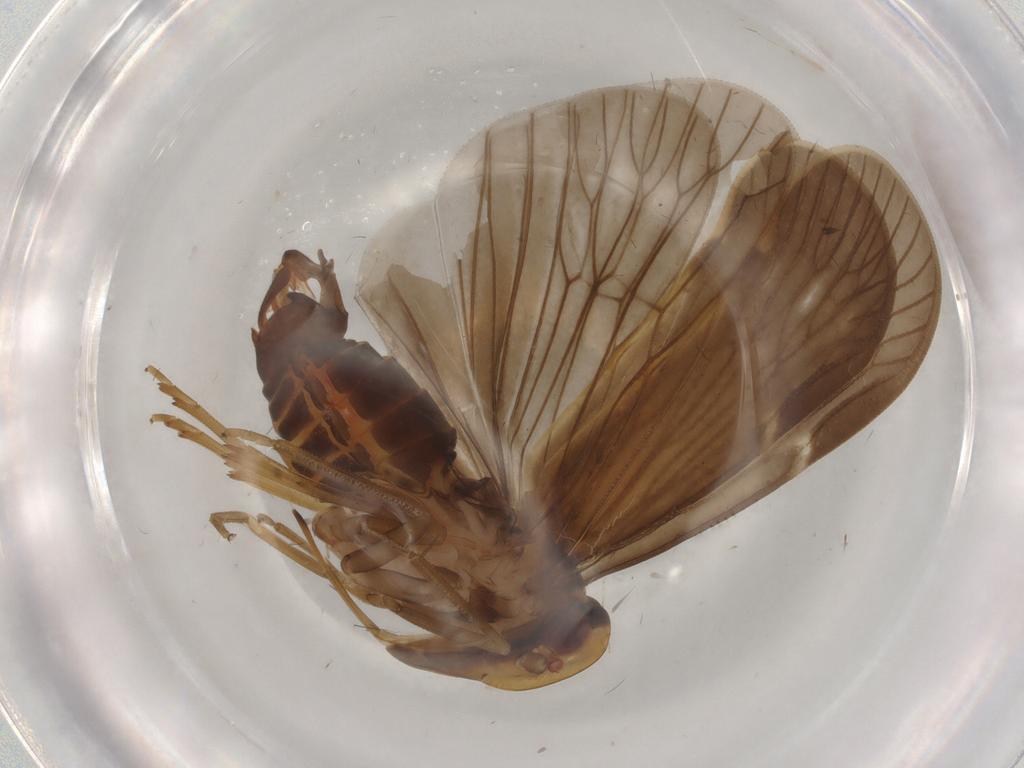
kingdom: Animalia
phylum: Arthropoda
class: Insecta
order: Hemiptera
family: Cixiidae
